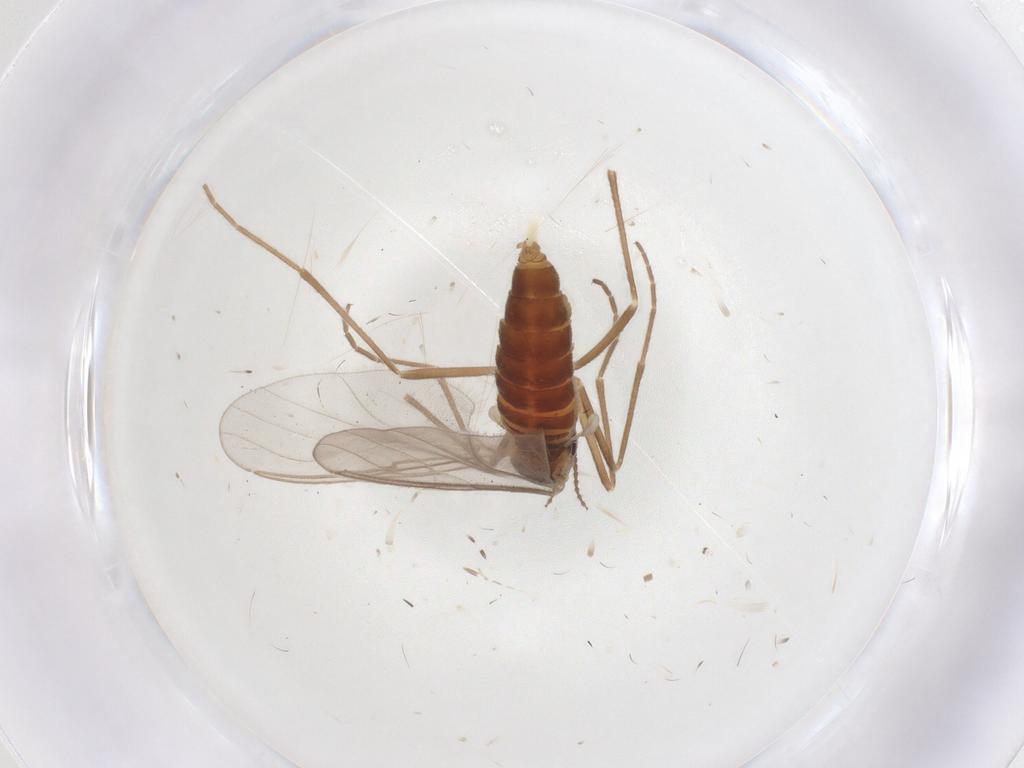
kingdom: Animalia
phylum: Arthropoda
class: Insecta
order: Diptera
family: Cecidomyiidae
